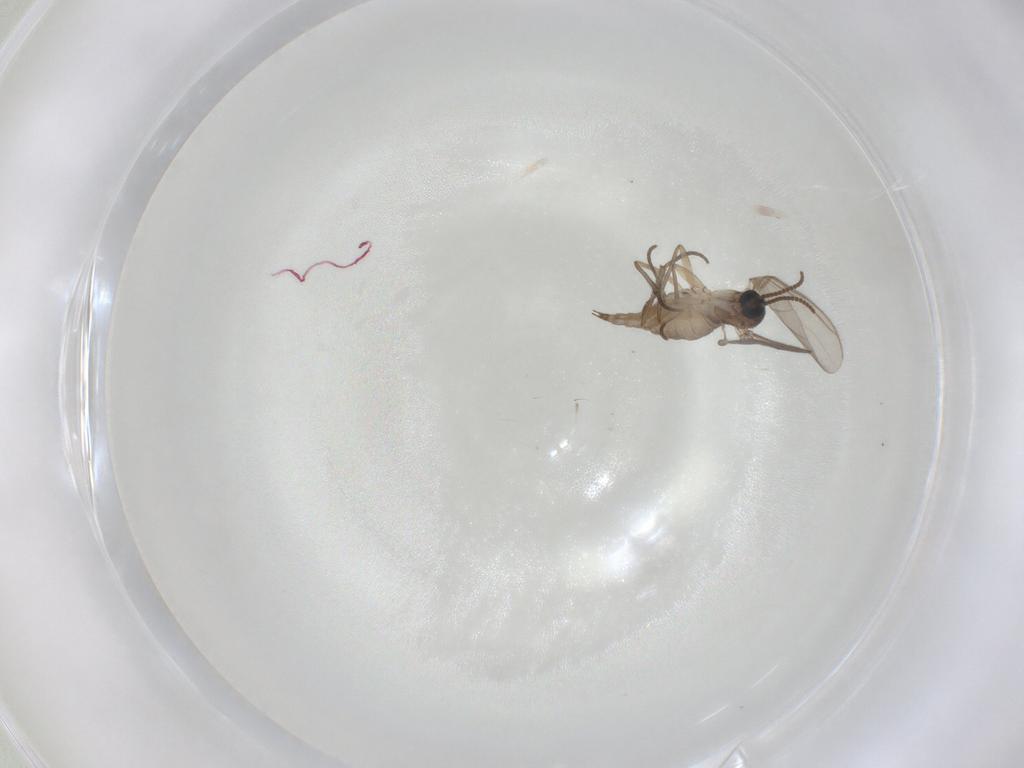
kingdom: Animalia
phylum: Arthropoda
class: Insecta
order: Diptera
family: Sciaridae
